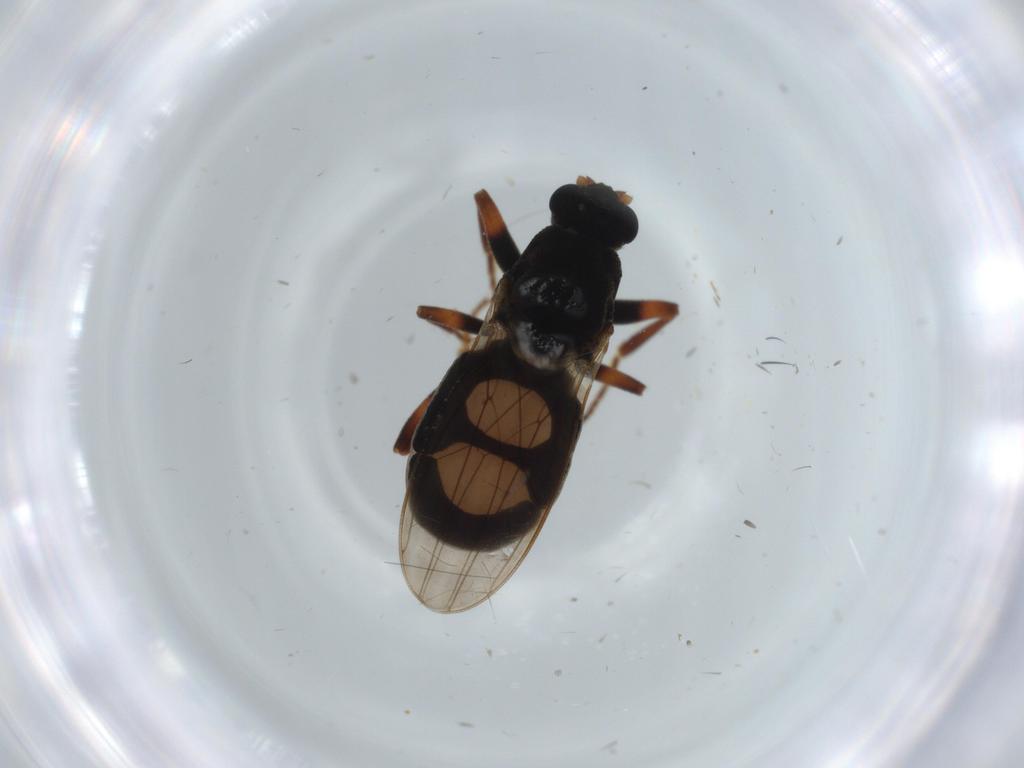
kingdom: Animalia
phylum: Arthropoda
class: Insecta
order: Diptera
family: Sphaeroceridae
